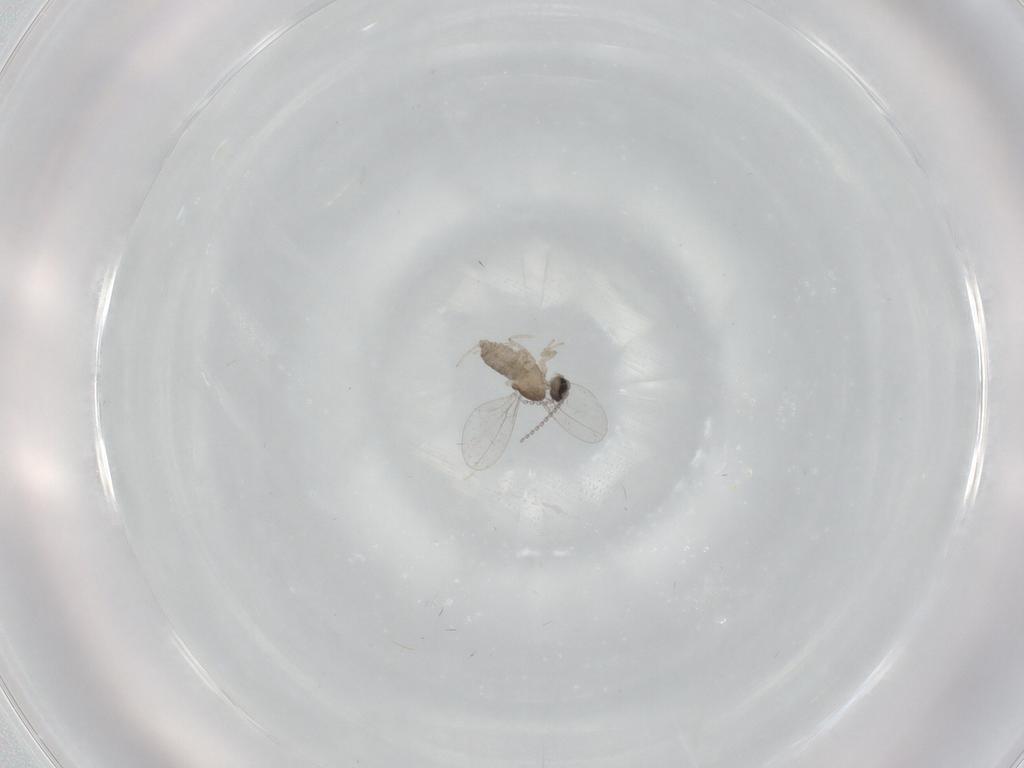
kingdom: Animalia
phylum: Arthropoda
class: Insecta
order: Diptera
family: Cecidomyiidae
